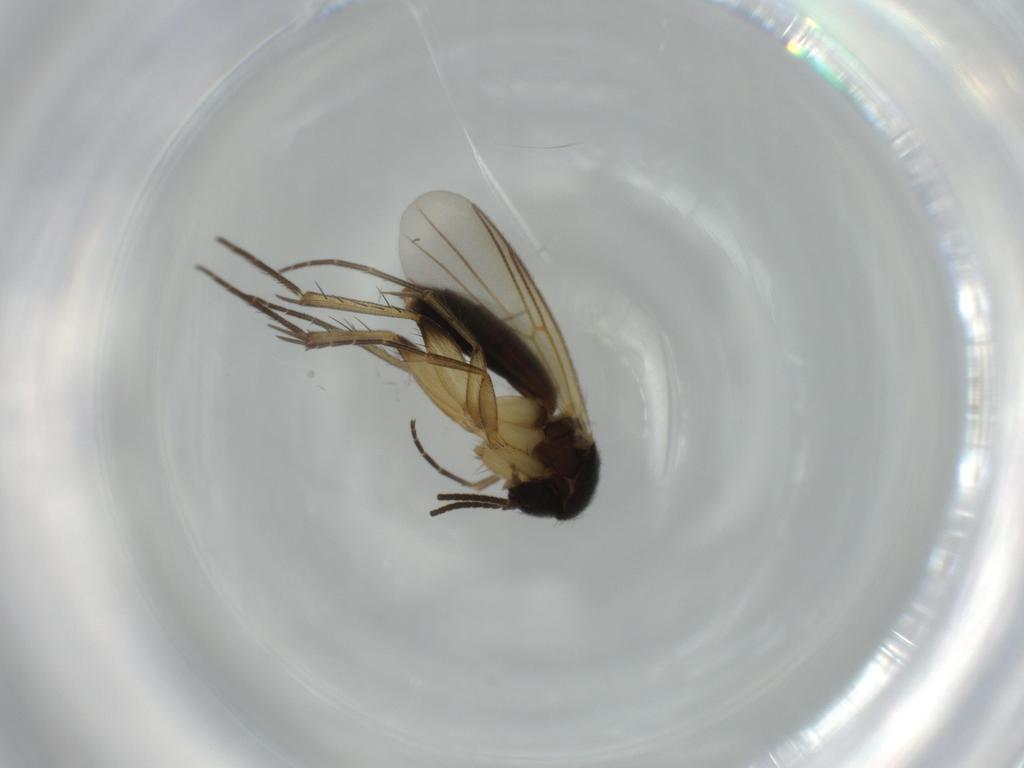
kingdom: Animalia
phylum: Arthropoda
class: Insecta
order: Diptera
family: Mycetophilidae
